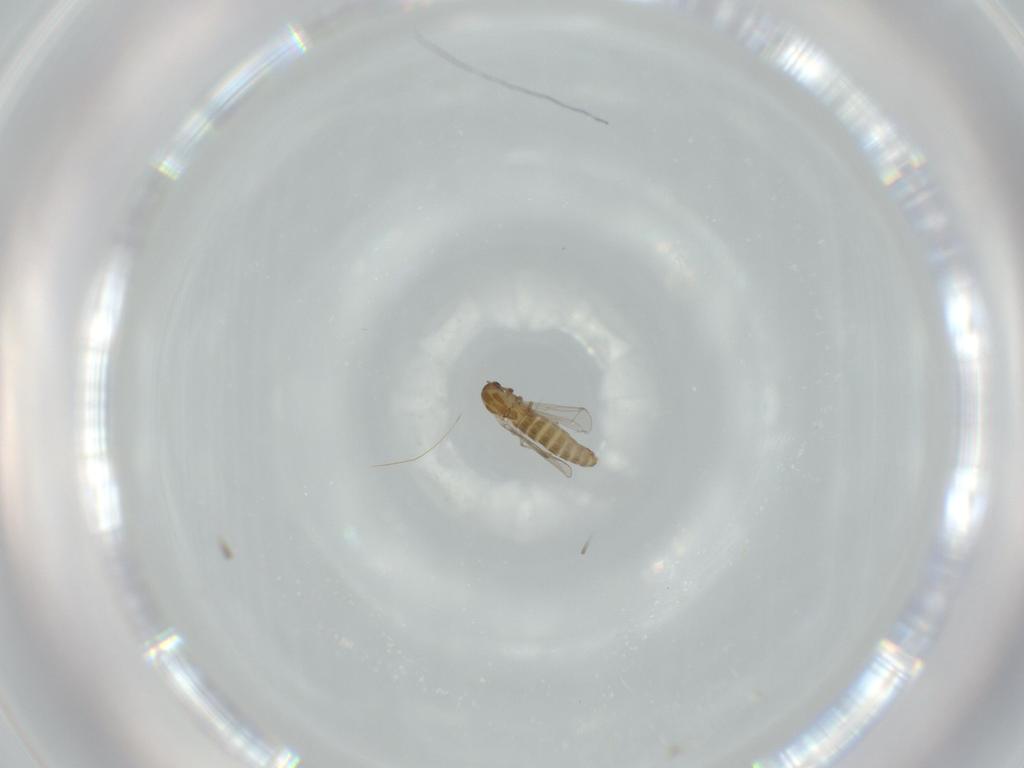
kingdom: Animalia
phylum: Arthropoda
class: Insecta
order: Diptera
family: Chironomidae
